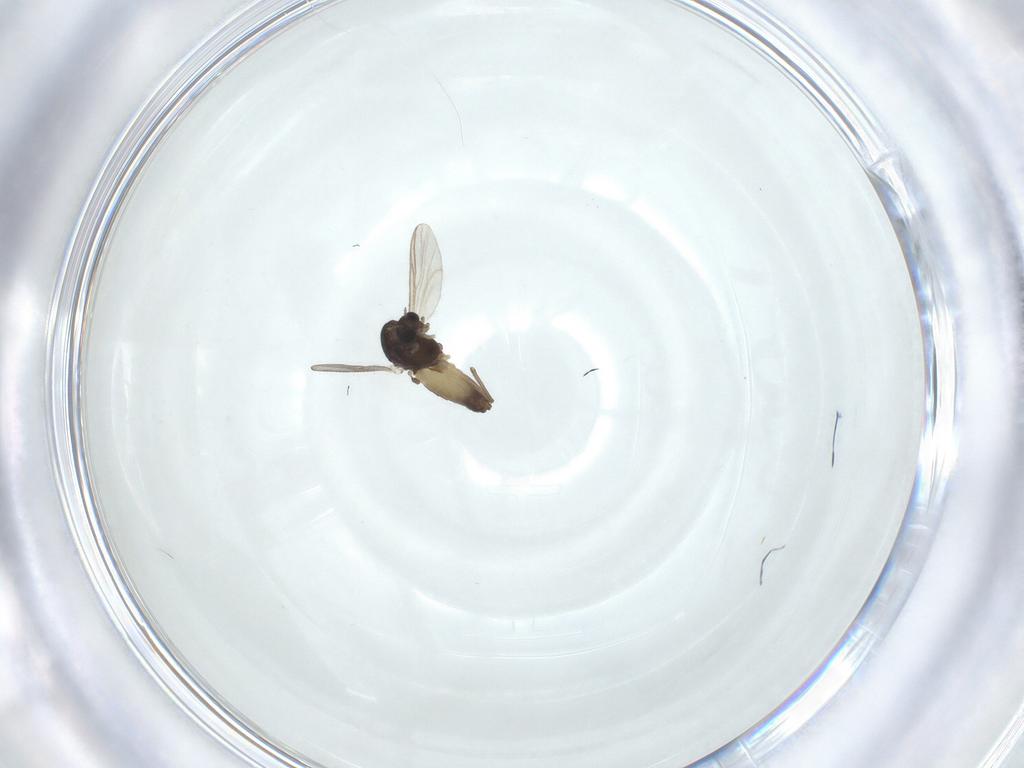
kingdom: Animalia
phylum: Arthropoda
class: Insecta
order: Diptera
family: Chironomidae
